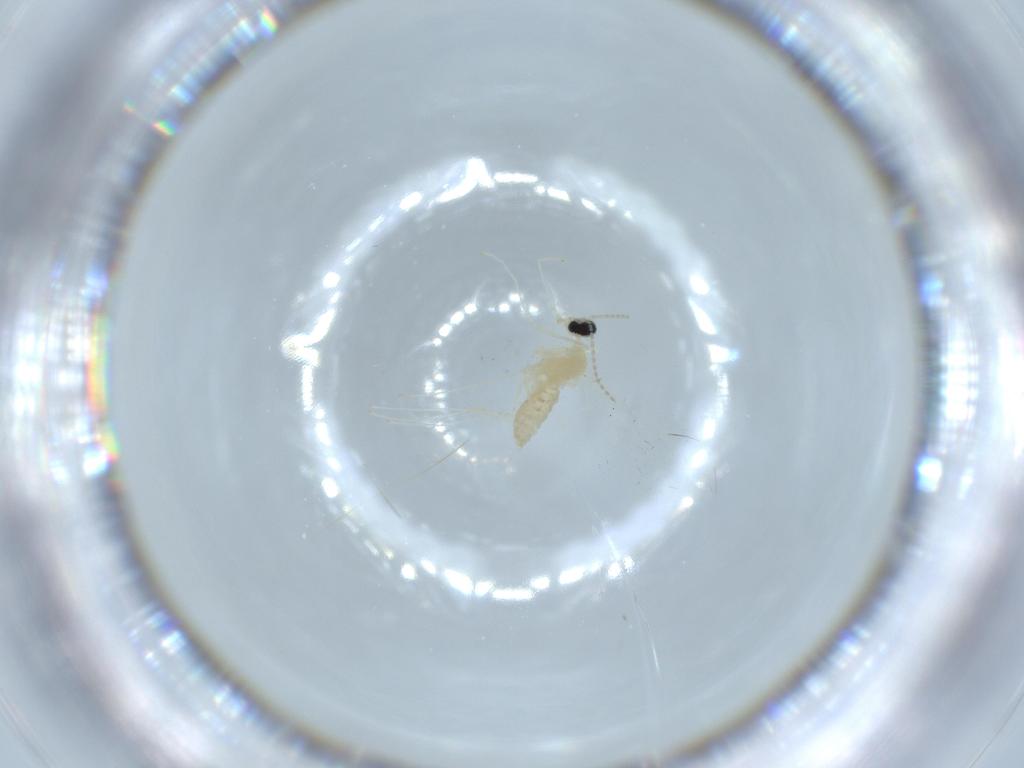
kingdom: Animalia
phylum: Arthropoda
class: Insecta
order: Diptera
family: Cecidomyiidae
